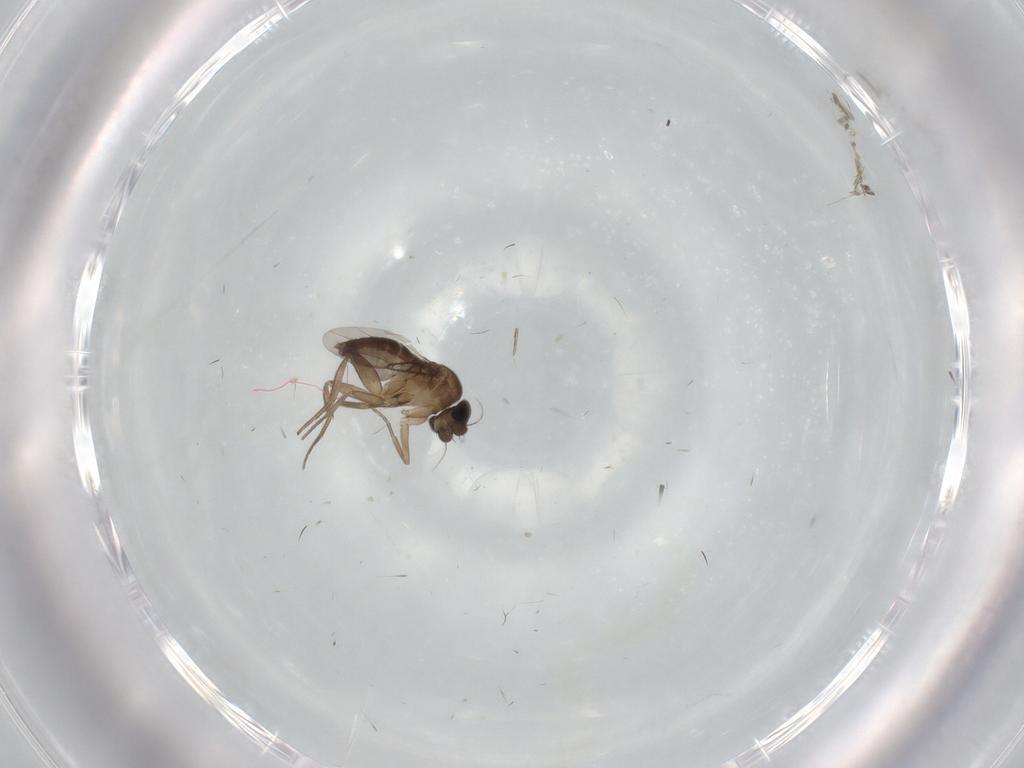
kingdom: Animalia
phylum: Arthropoda
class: Insecta
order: Diptera
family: Phoridae
